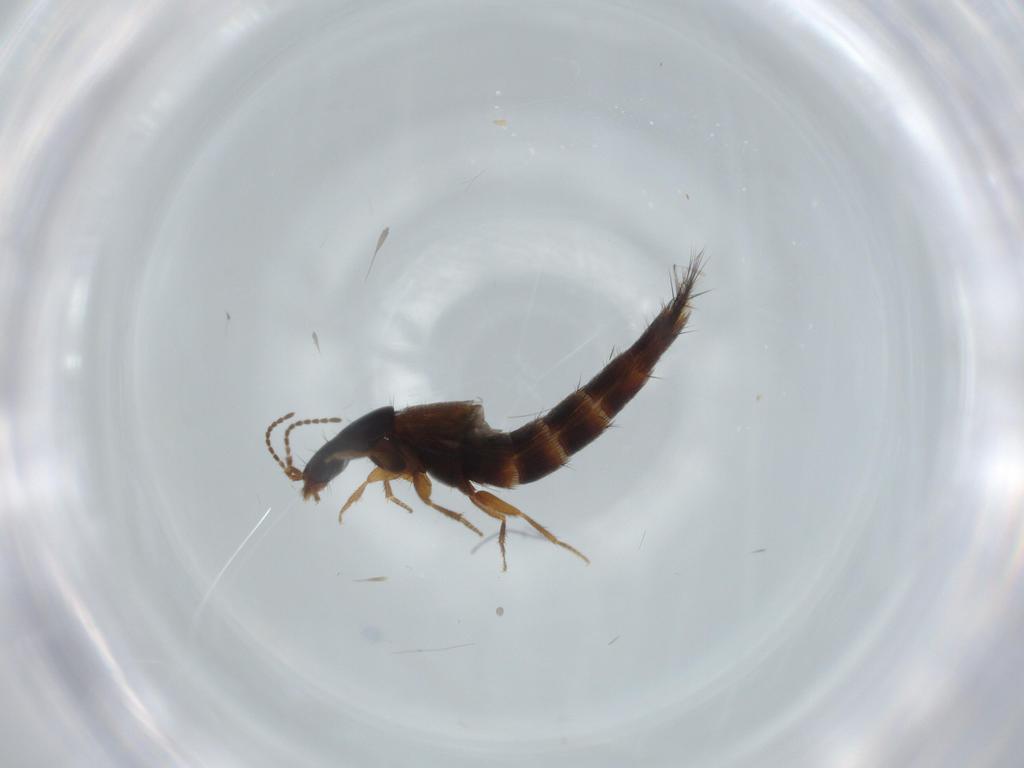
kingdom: Animalia
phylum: Arthropoda
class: Insecta
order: Coleoptera
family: Staphylinidae
